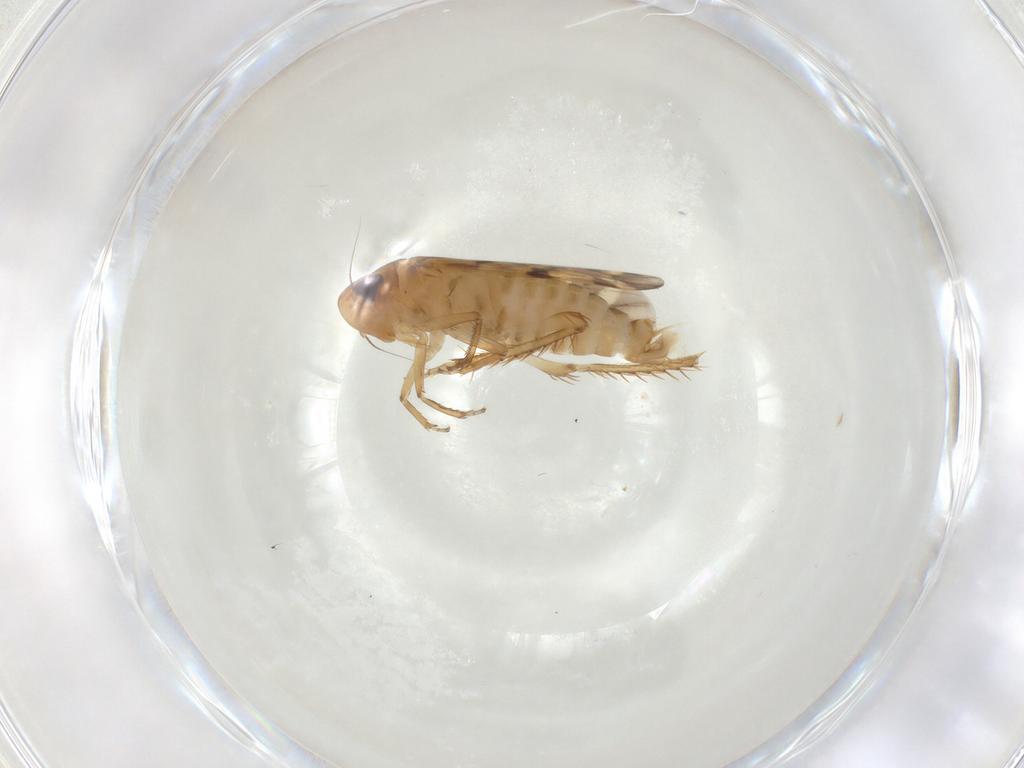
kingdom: Animalia
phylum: Arthropoda
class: Insecta
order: Hemiptera
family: Cicadellidae
